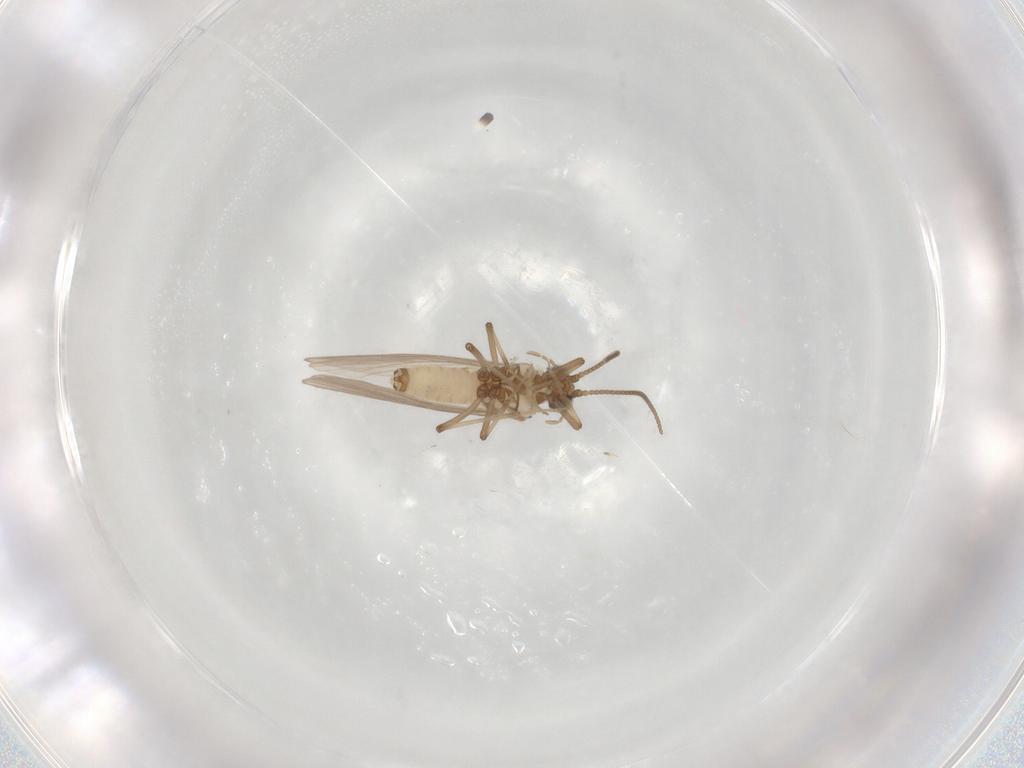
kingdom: Animalia
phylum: Arthropoda
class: Insecta
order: Neuroptera
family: Coniopterygidae
